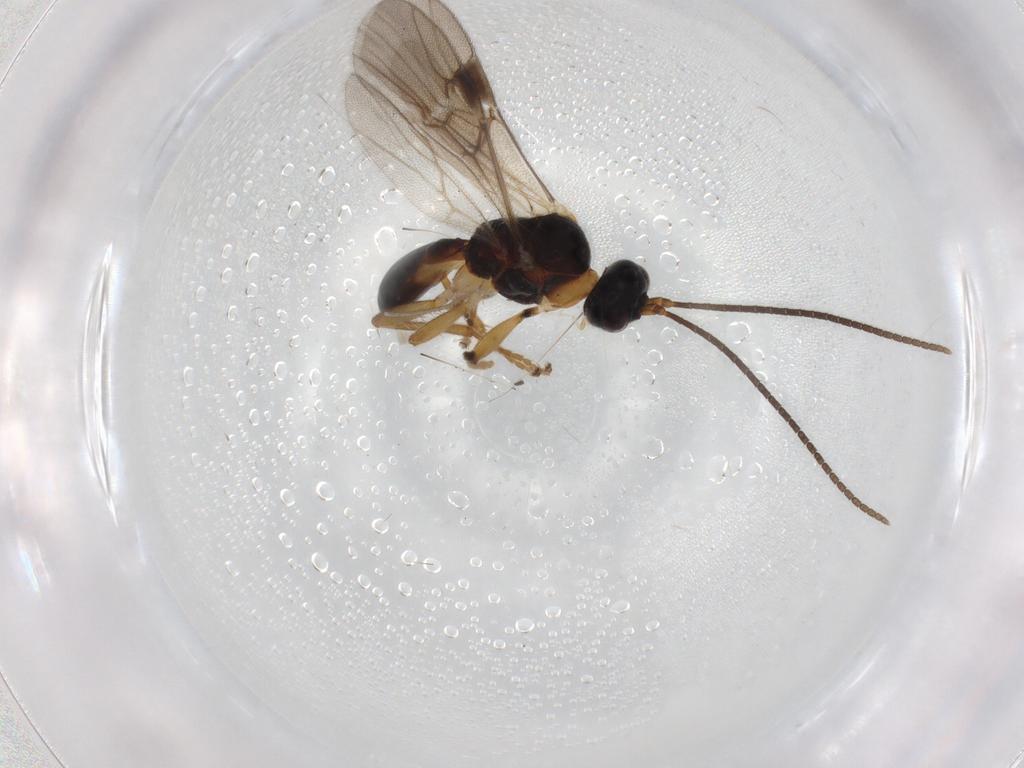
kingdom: Animalia
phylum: Arthropoda
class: Insecta
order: Hymenoptera
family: Braconidae
